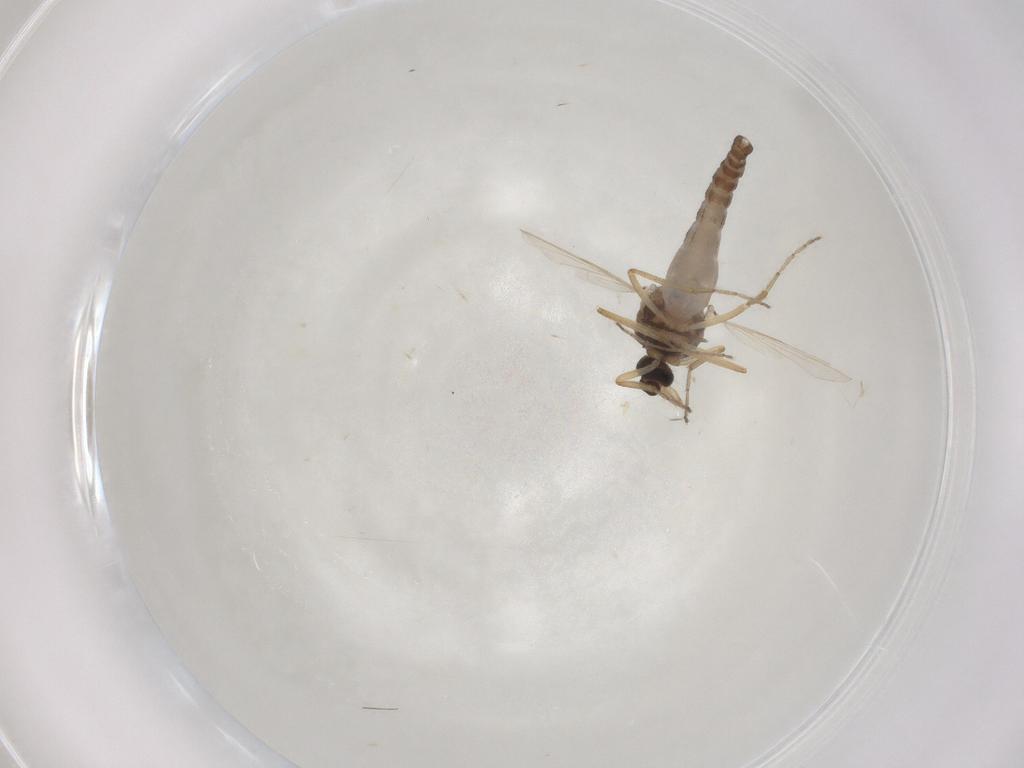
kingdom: Animalia
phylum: Arthropoda
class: Insecta
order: Diptera
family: Ceratopogonidae
